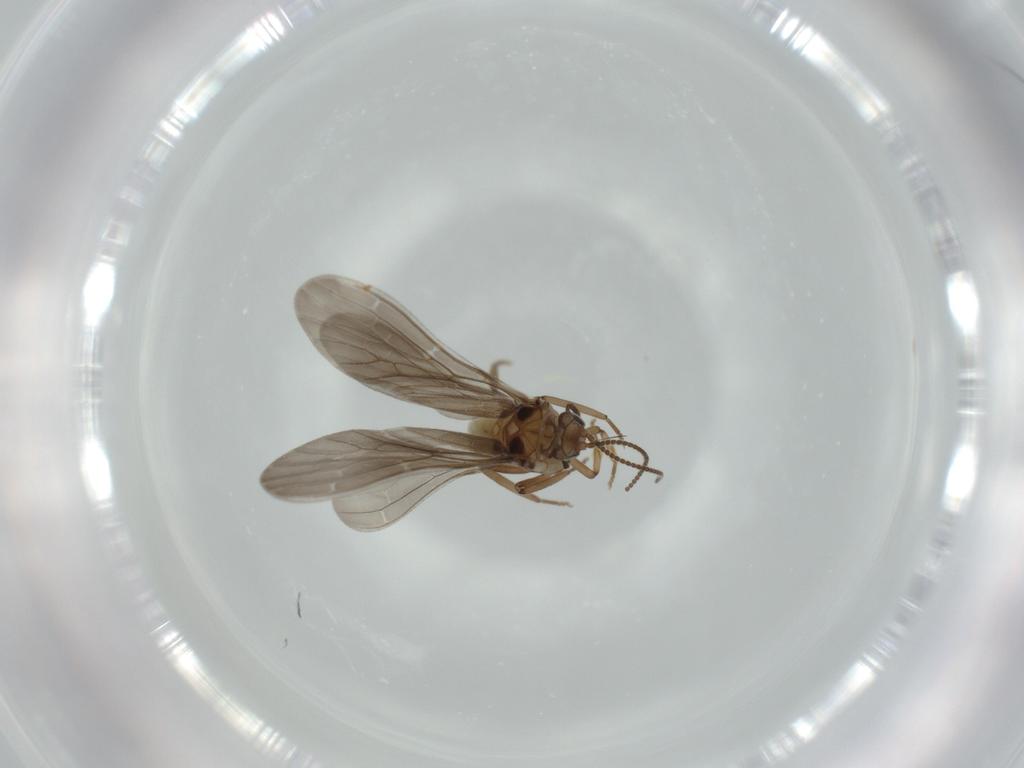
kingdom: Animalia
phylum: Arthropoda
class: Insecta
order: Neuroptera
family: Coniopterygidae
